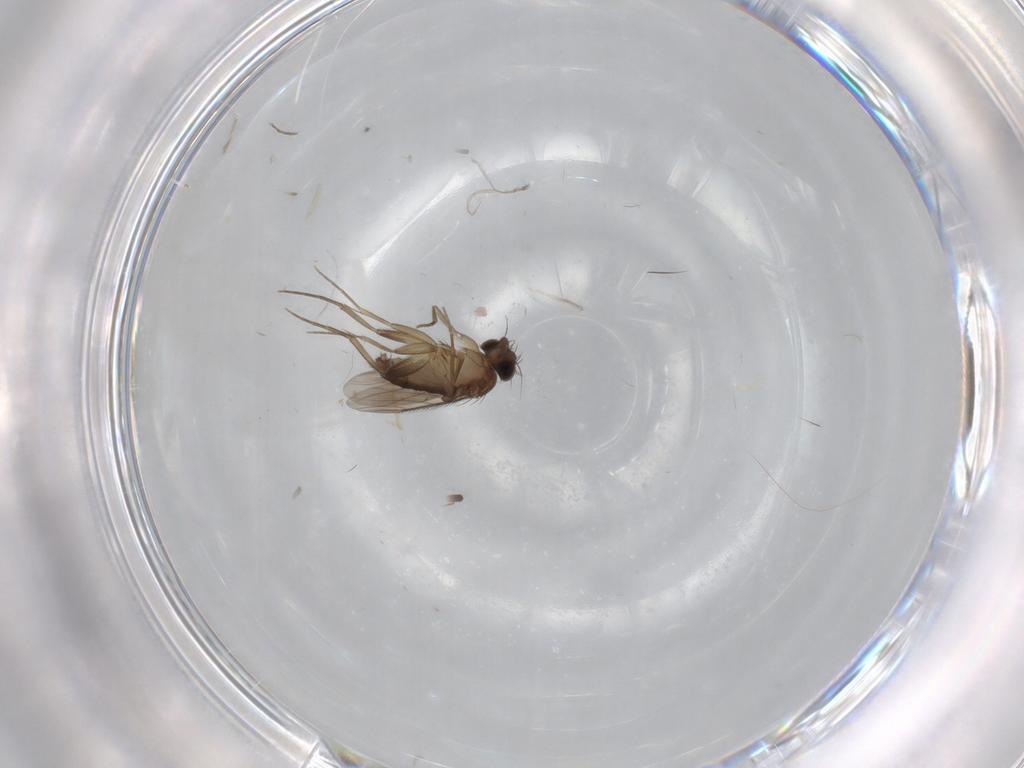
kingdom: Animalia
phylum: Arthropoda
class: Insecta
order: Diptera
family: Phoridae
